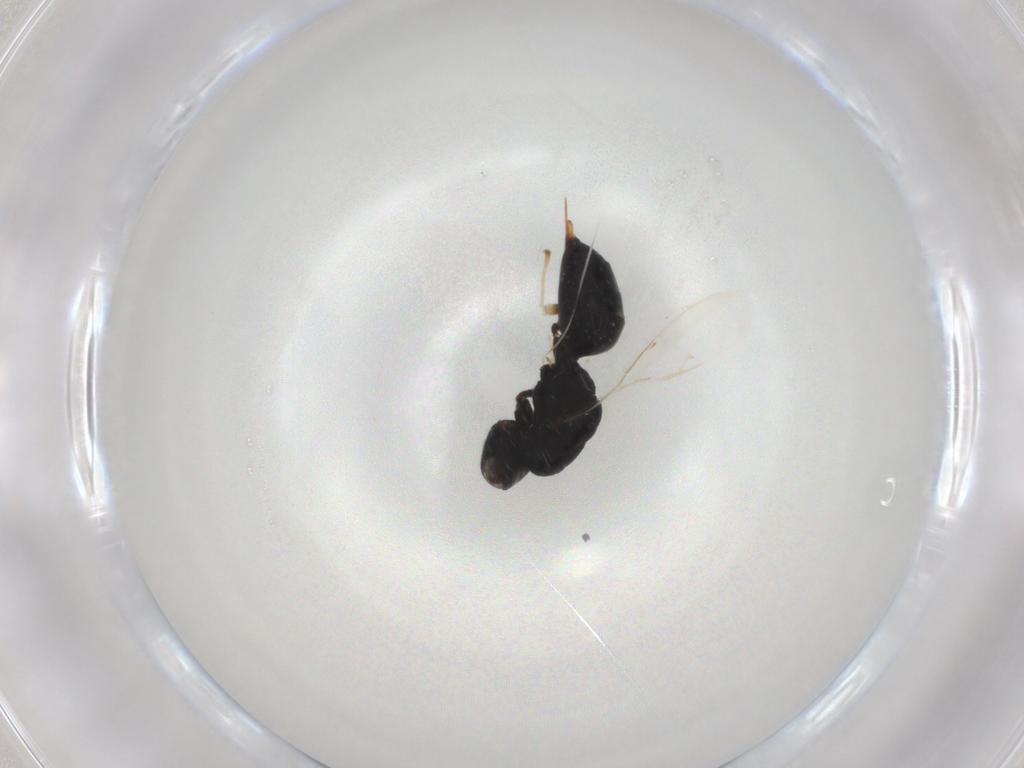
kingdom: Animalia
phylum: Arthropoda
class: Insecta
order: Hymenoptera
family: Eurytomidae
